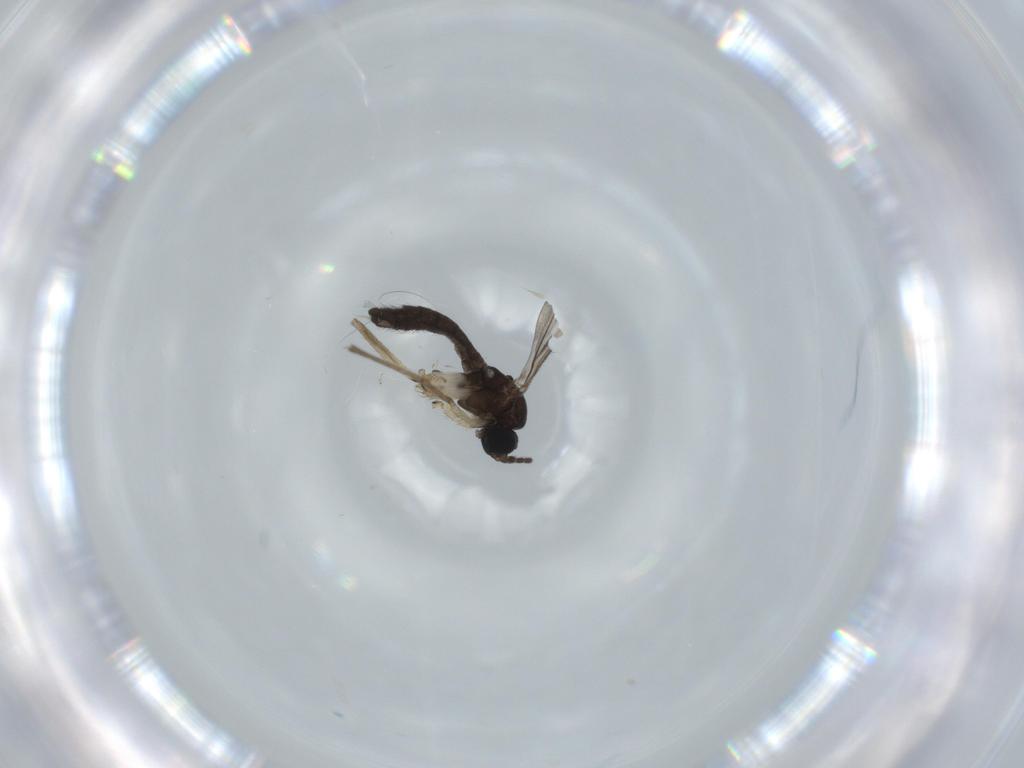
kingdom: Animalia
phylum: Arthropoda
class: Insecta
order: Diptera
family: Sciaridae
